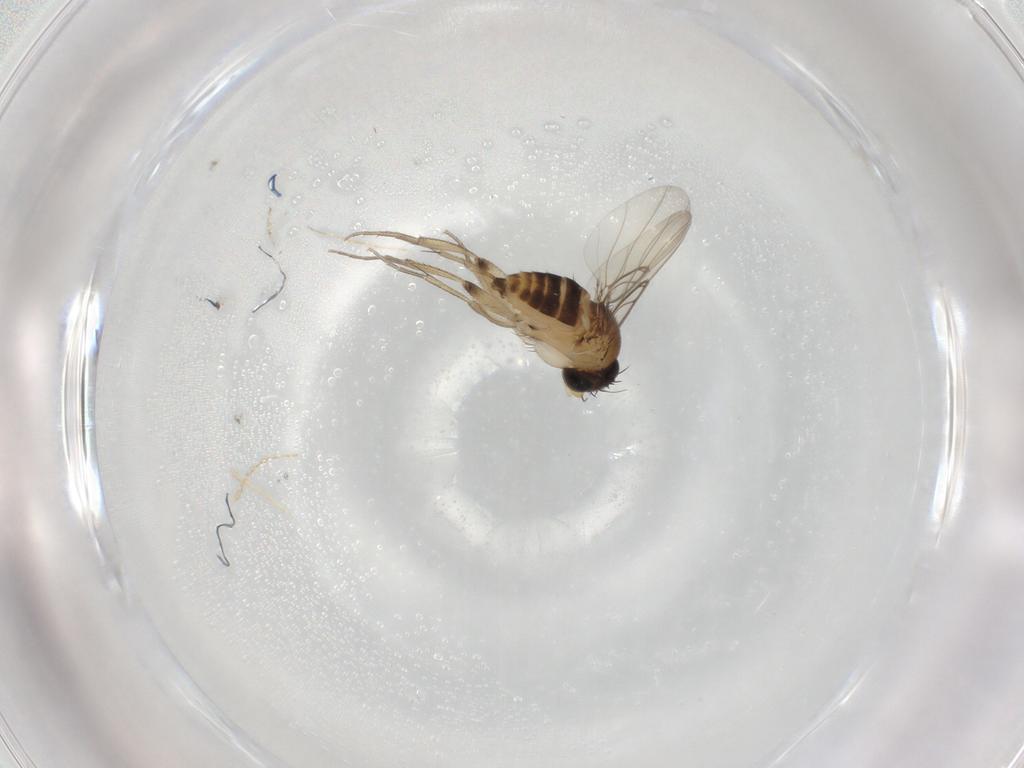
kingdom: Animalia
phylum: Arthropoda
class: Insecta
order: Diptera
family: Phoridae
